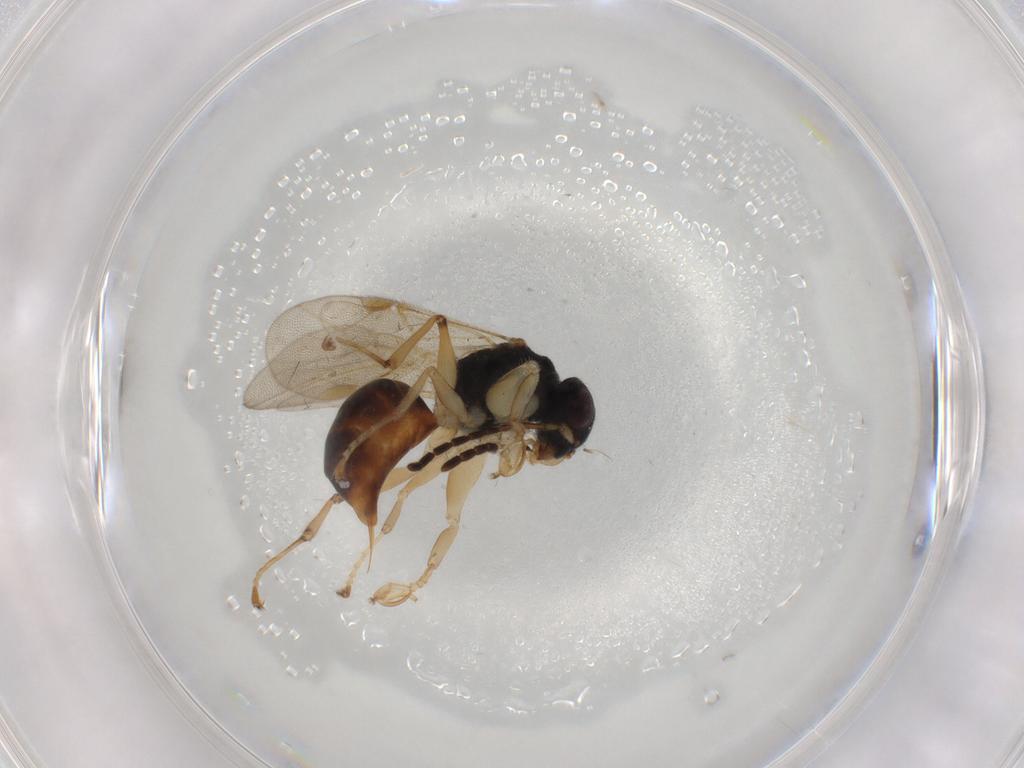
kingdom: Animalia
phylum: Arthropoda
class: Insecta
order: Hymenoptera
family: Dryinidae
